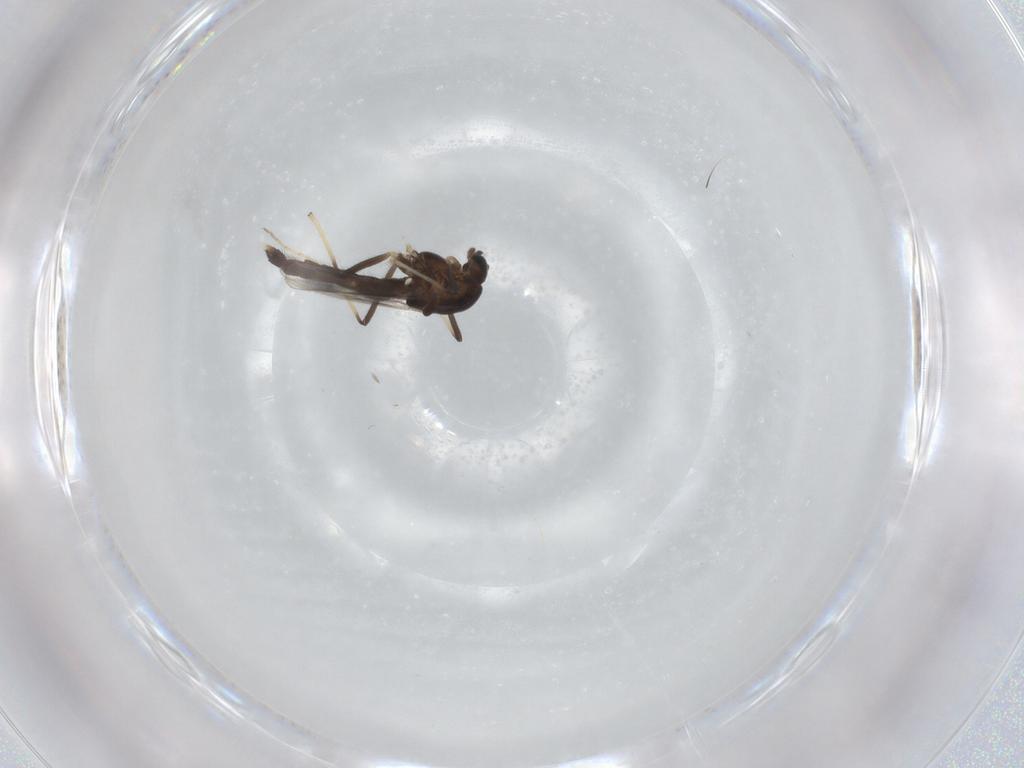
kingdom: Animalia
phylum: Arthropoda
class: Insecta
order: Diptera
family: Chironomidae
